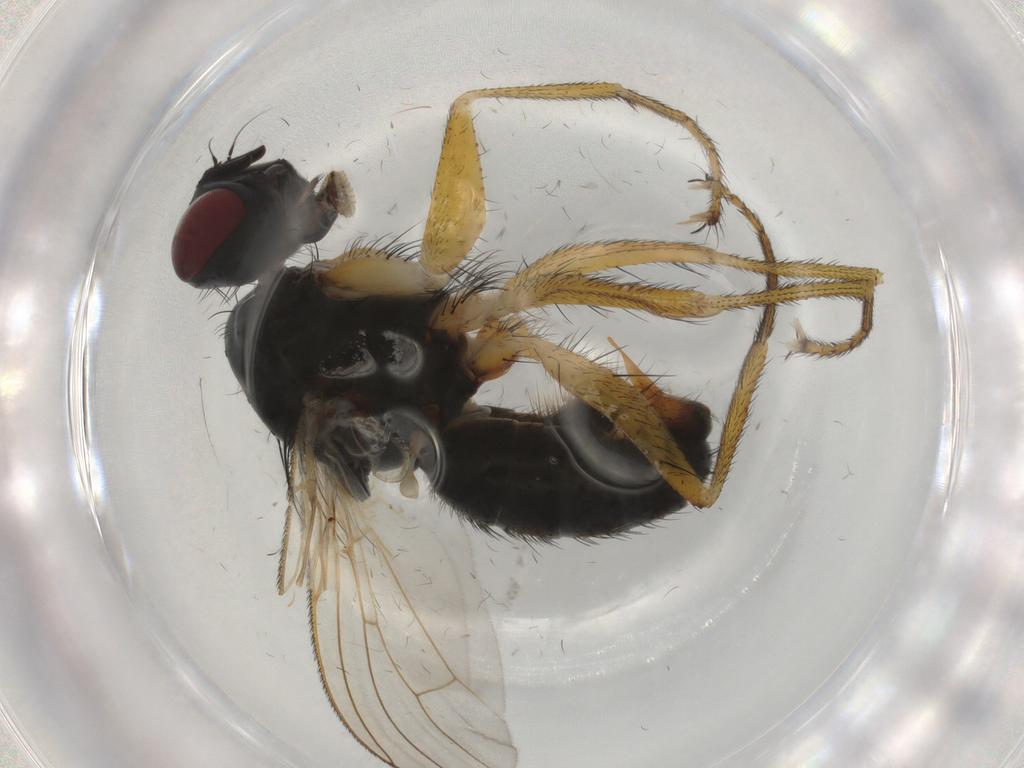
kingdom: Animalia
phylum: Arthropoda
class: Insecta
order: Diptera
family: Muscidae
